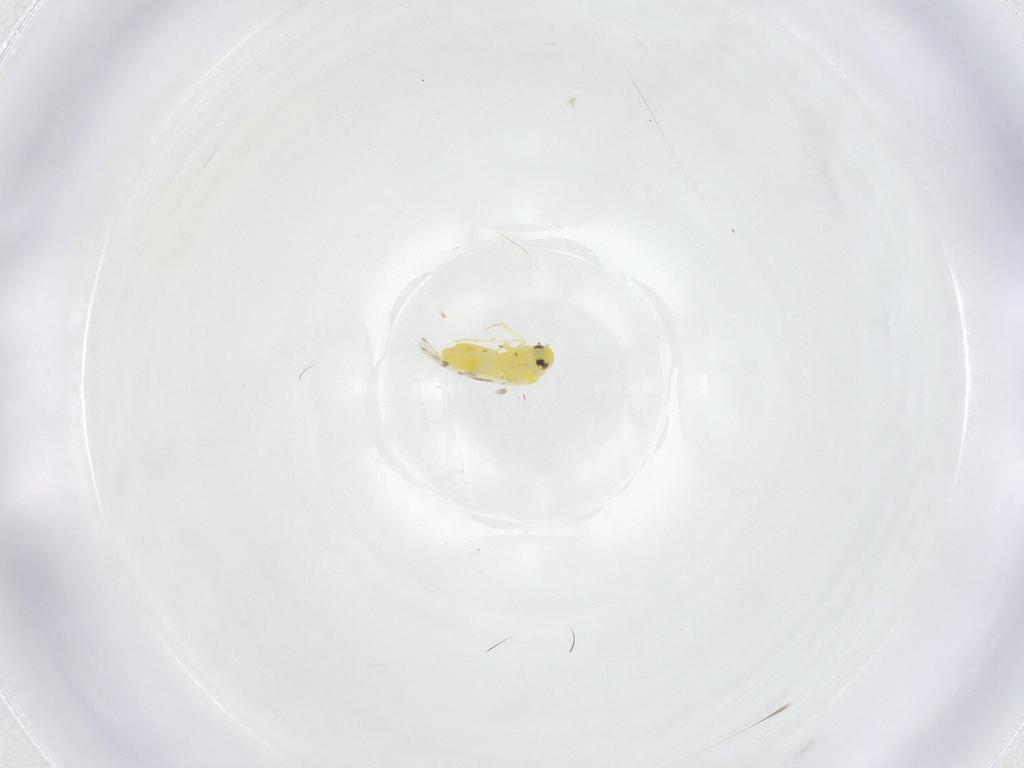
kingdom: Animalia
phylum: Arthropoda
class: Insecta
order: Hemiptera
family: Aleyrodidae
